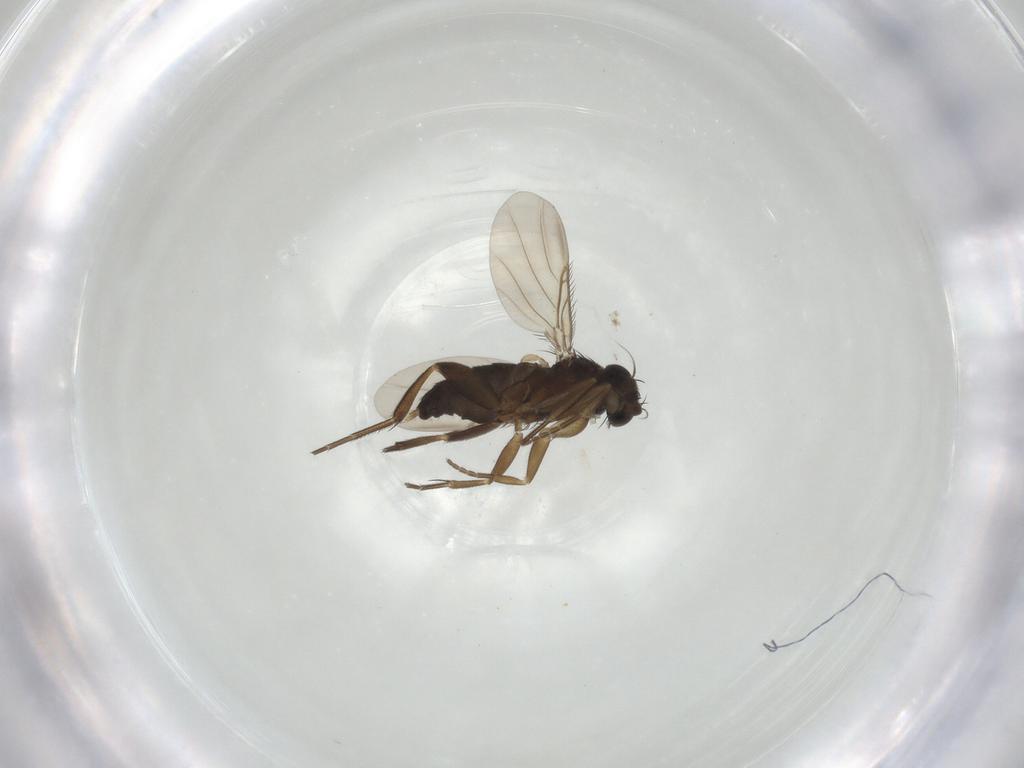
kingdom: Animalia
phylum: Arthropoda
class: Insecta
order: Diptera
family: Phoridae
